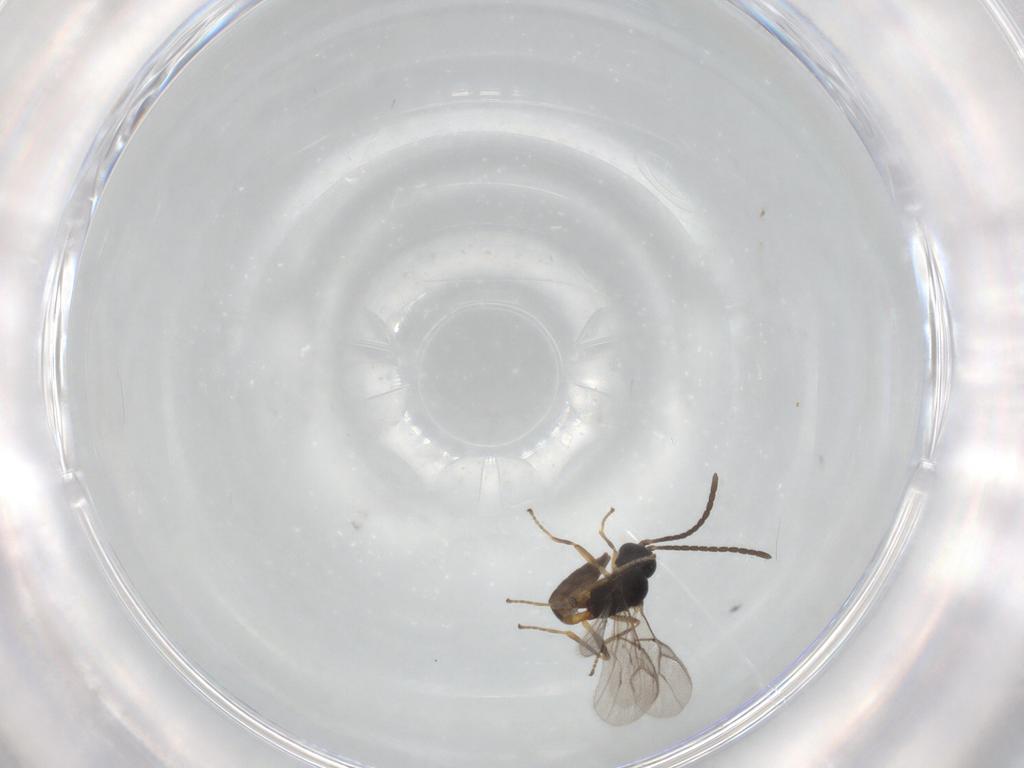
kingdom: Animalia
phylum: Arthropoda
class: Insecta
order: Hymenoptera
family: Braconidae
